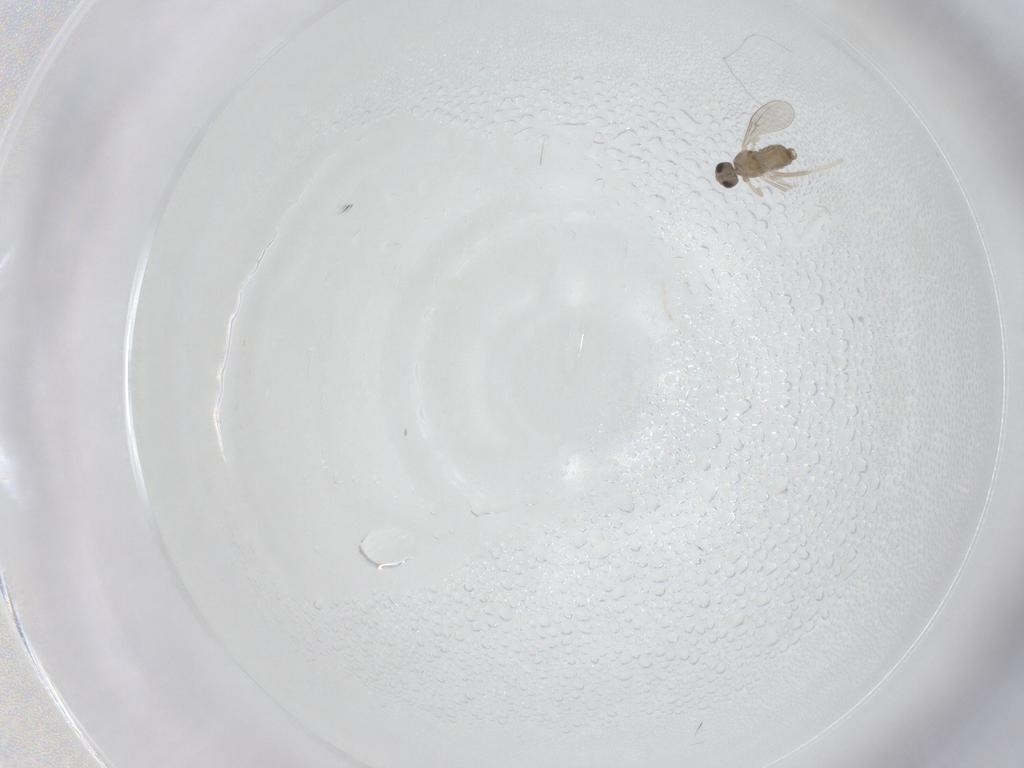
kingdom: Animalia
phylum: Arthropoda
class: Insecta
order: Diptera
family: Cecidomyiidae
